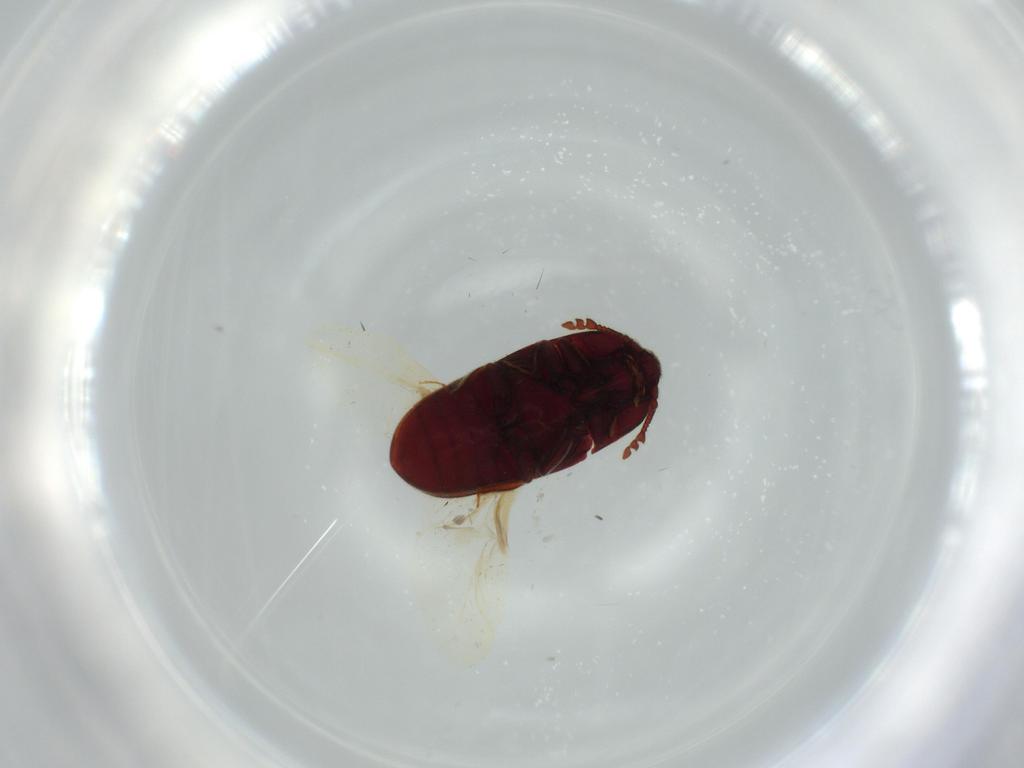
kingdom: Animalia
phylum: Arthropoda
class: Insecta
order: Coleoptera
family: Throscidae
